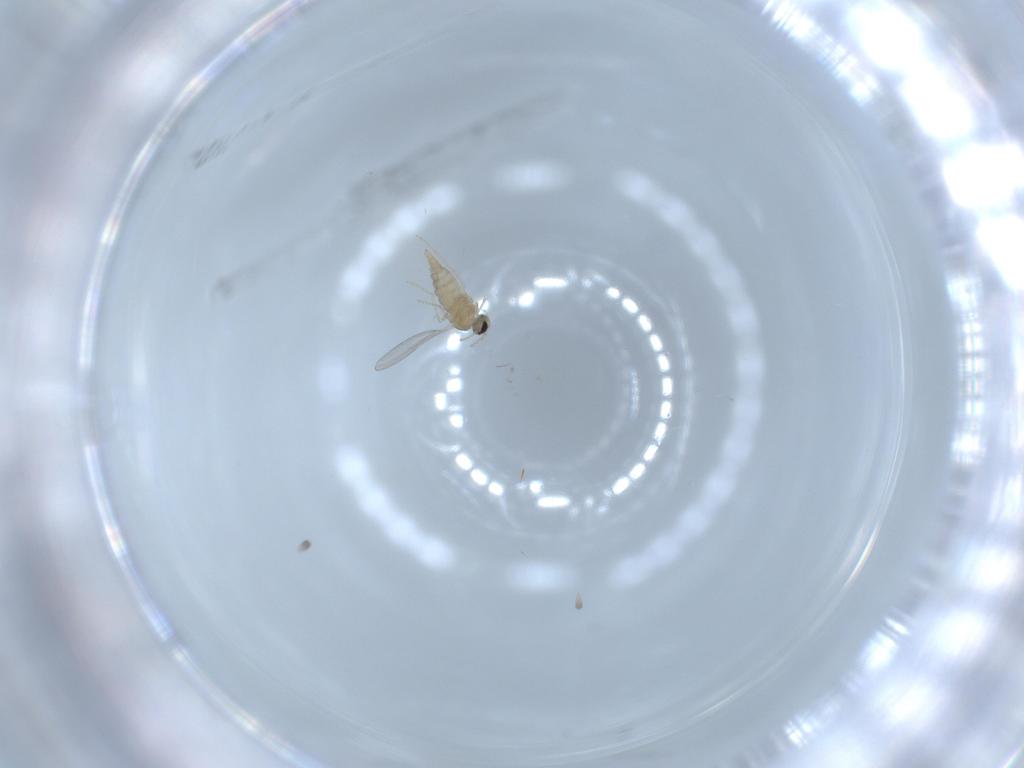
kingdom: Animalia
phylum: Arthropoda
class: Insecta
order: Diptera
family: Cecidomyiidae
